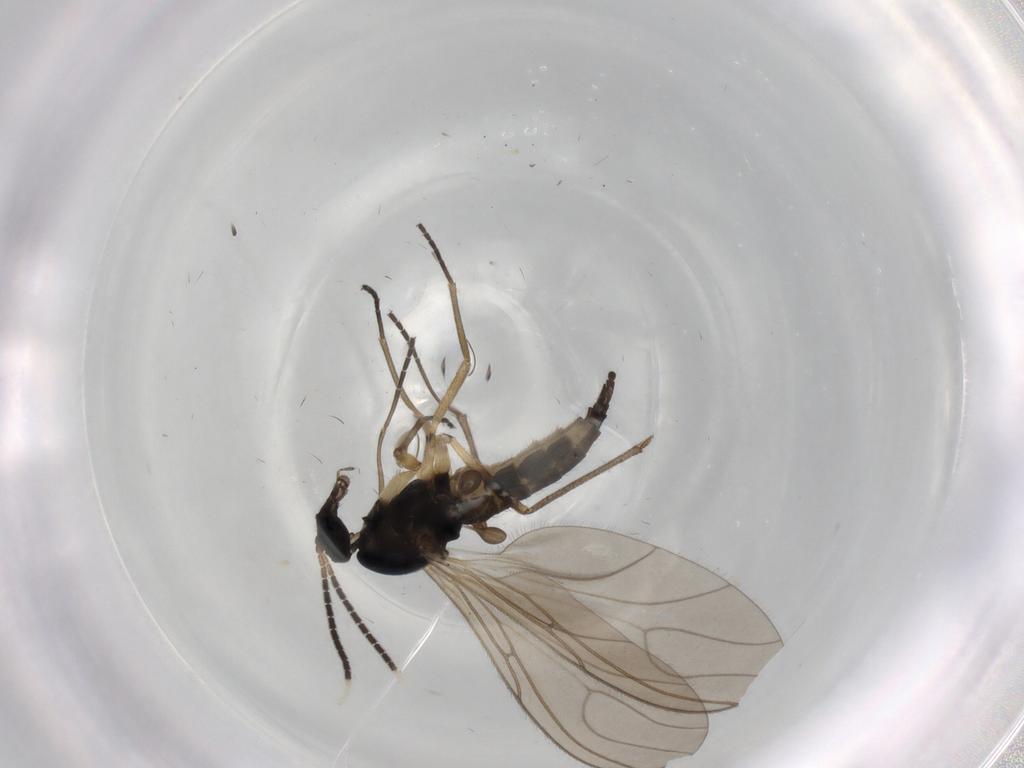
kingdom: Animalia
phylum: Arthropoda
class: Insecta
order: Diptera
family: Sciaridae
